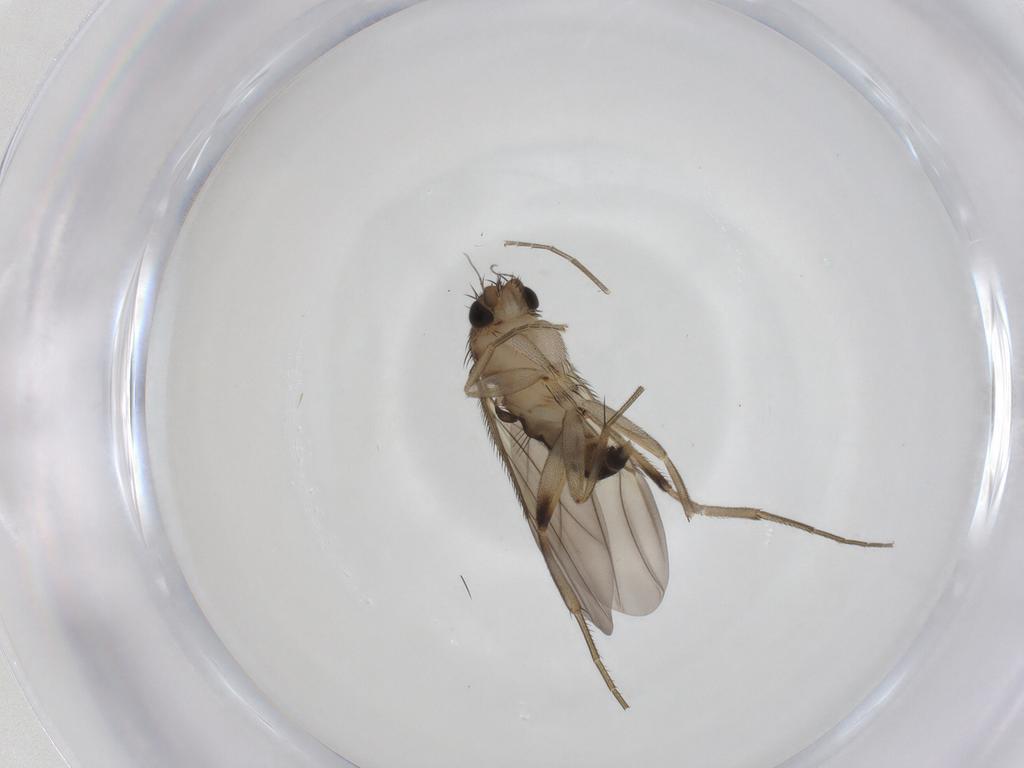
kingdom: Animalia
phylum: Arthropoda
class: Insecta
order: Diptera
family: Phoridae
